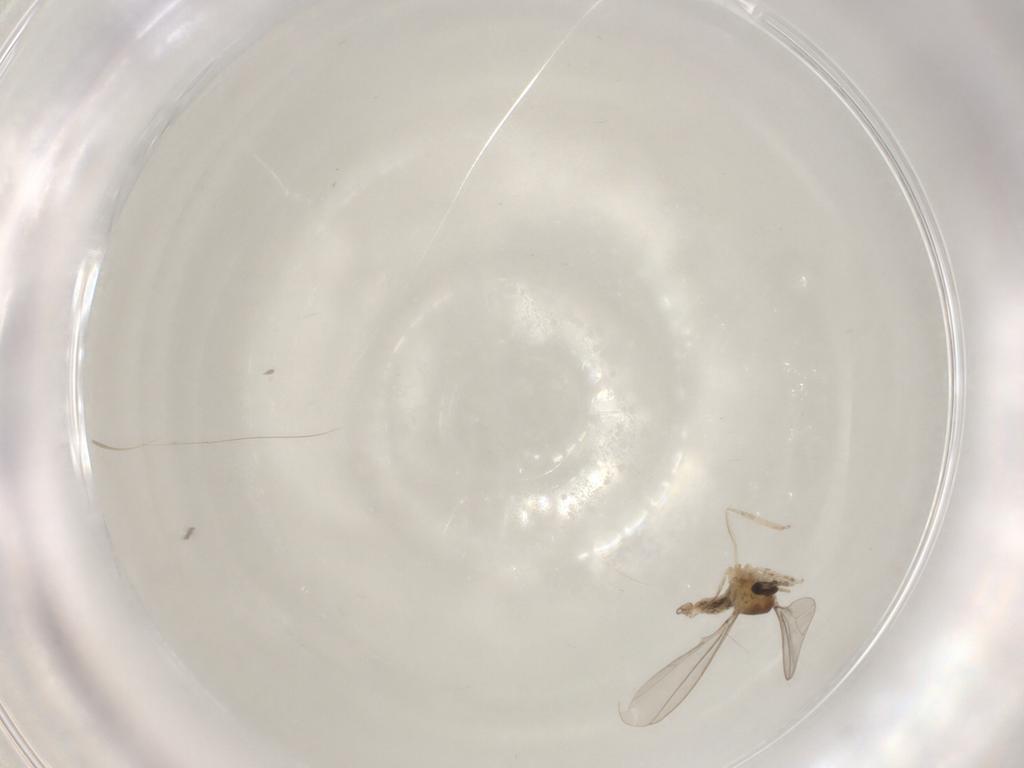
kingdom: Animalia
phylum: Arthropoda
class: Insecta
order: Diptera
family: Phoridae
